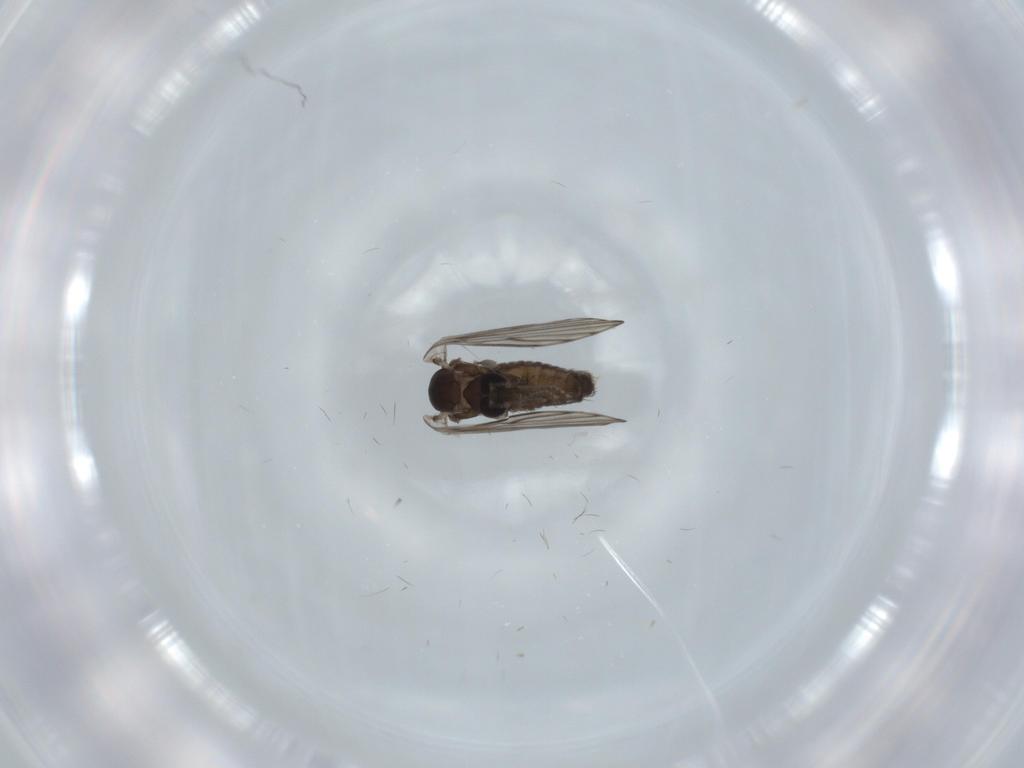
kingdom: Animalia
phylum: Arthropoda
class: Insecta
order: Diptera
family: Psychodidae
